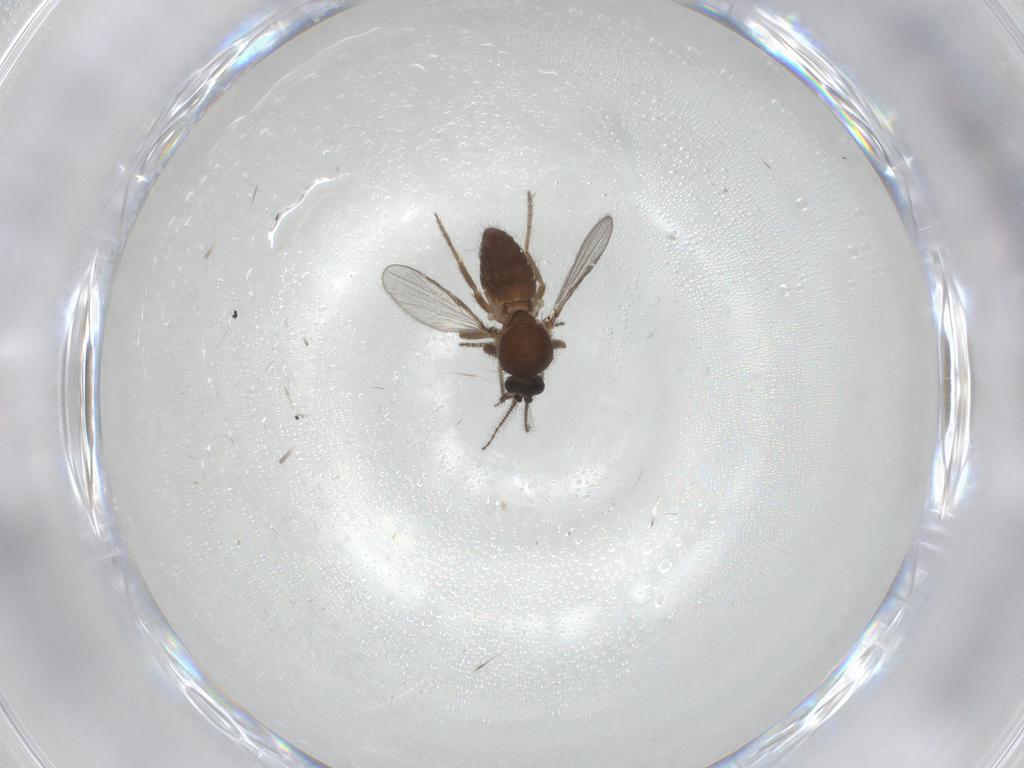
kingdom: Animalia
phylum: Arthropoda
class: Insecta
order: Diptera
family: Ceratopogonidae
